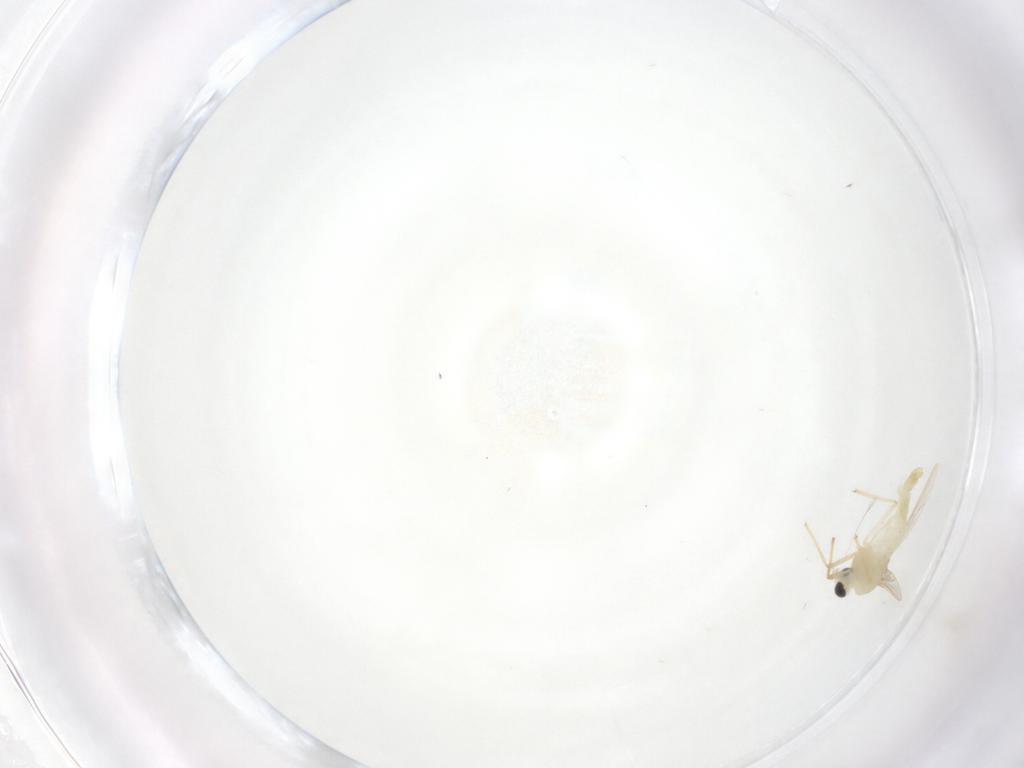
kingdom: Animalia
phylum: Arthropoda
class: Insecta
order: Diptera
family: Chironomidae
